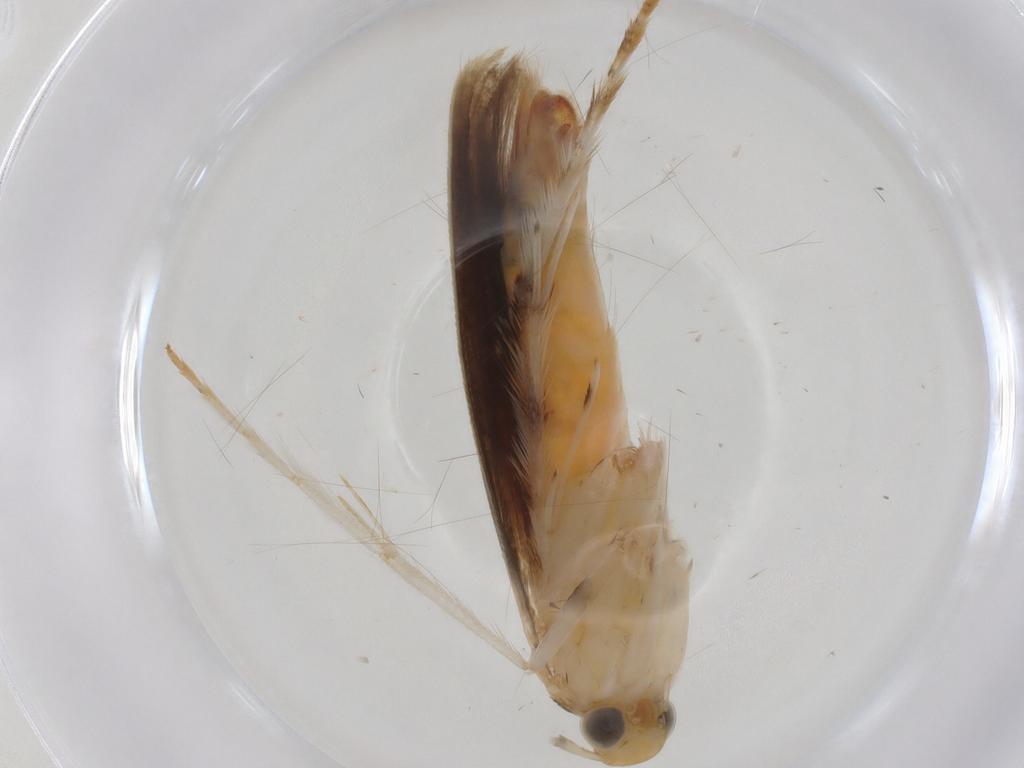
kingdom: Animalia
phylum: Arthropoda
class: Insecta
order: Lepidoptera
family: Gracillariidae
